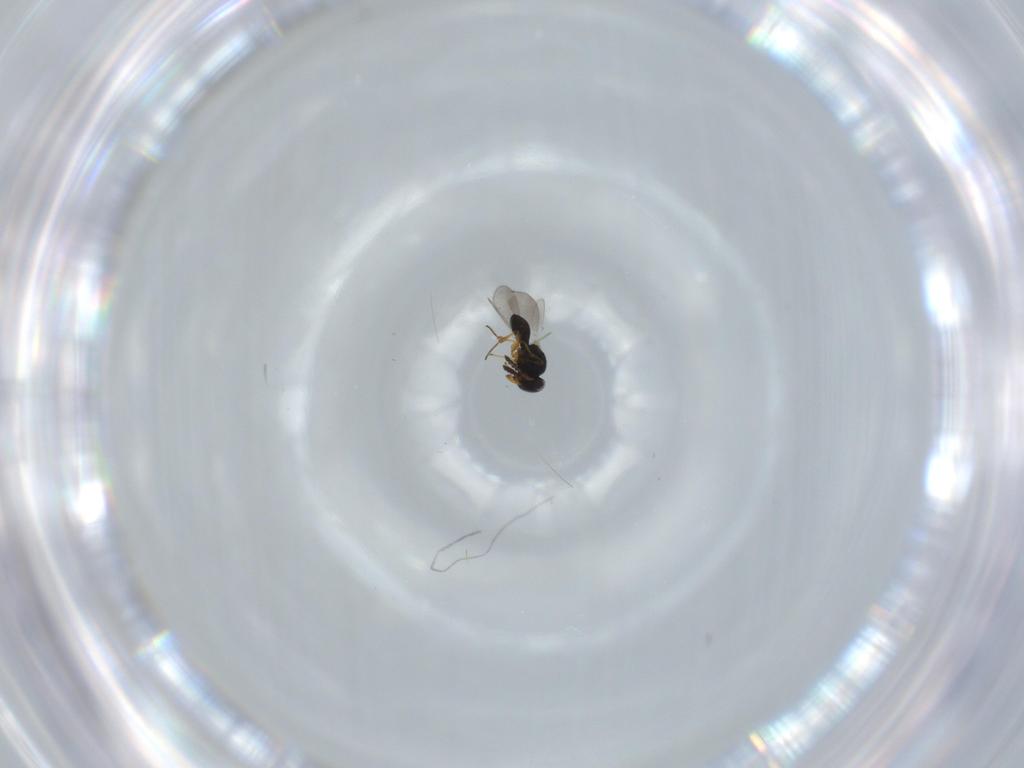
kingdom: Animalia
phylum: Arthropoda
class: Insecta
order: Hymenoptera
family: Platygastridae
